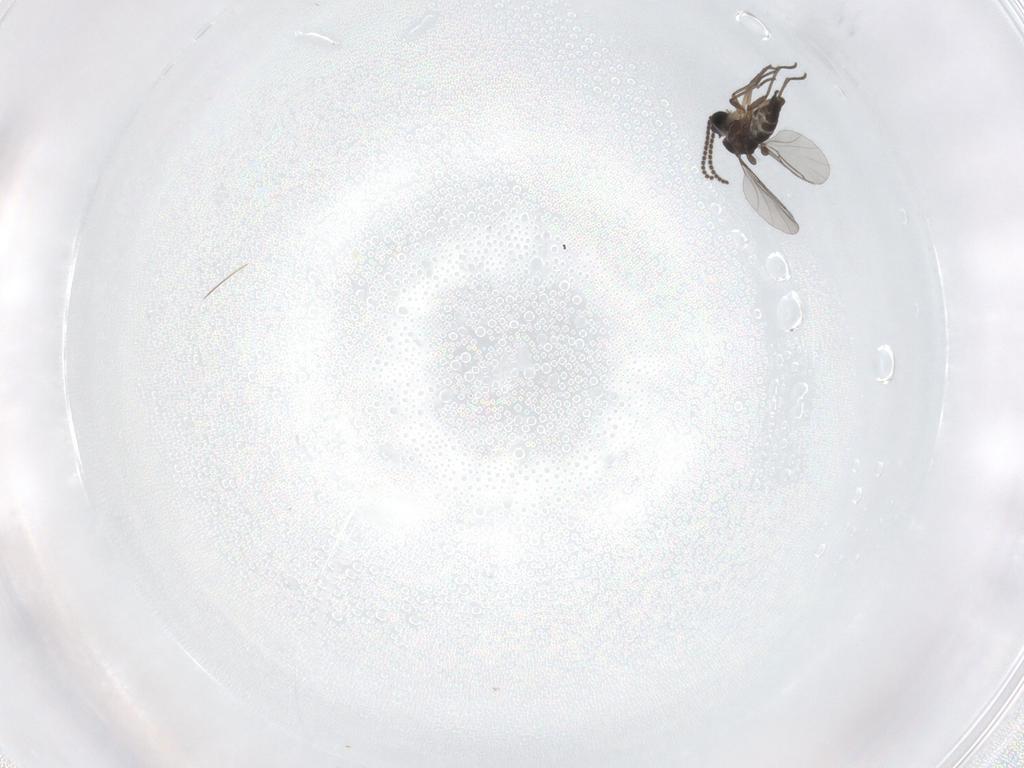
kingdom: Animalia
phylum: Arthropoda
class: Insecta
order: Diptera
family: Sciaridae
